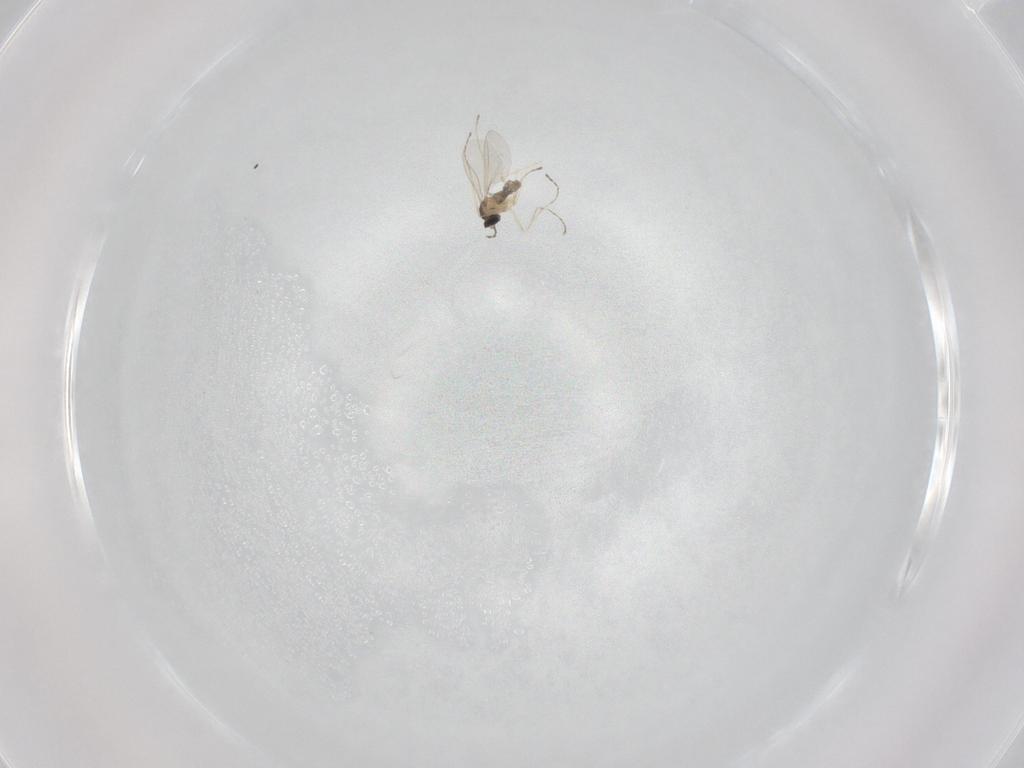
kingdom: Animalia
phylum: Arthropoda
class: Insecta
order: Diptera
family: Cecidomyiidae
